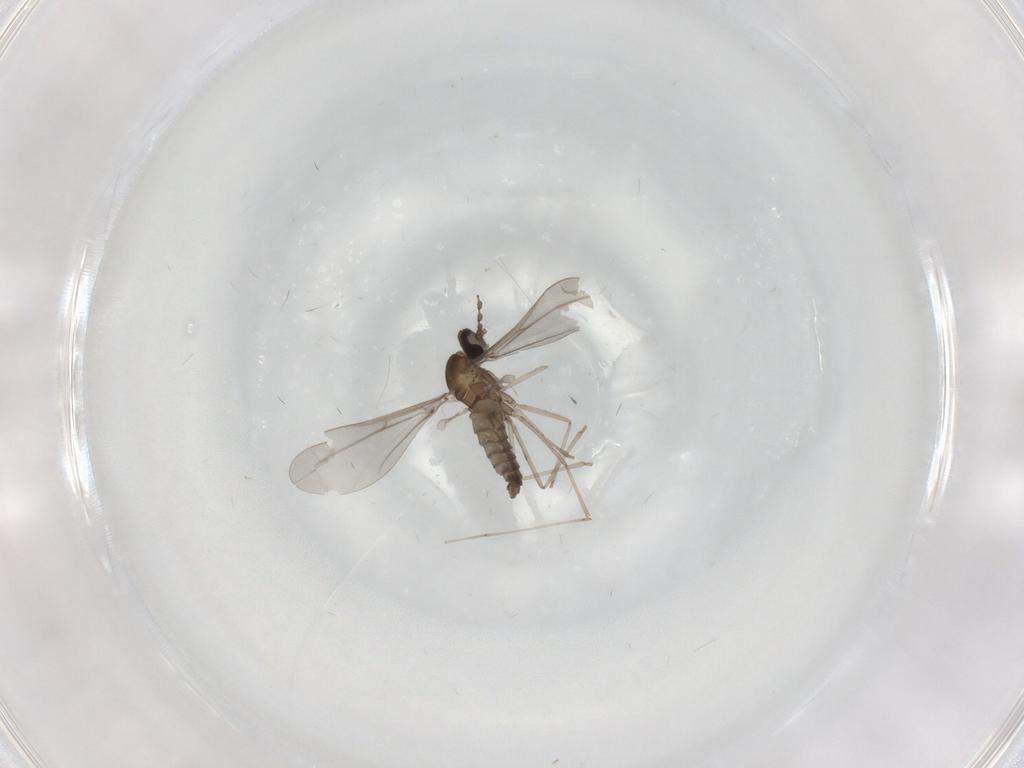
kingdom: Animalia
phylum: Arthropoda
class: Insecta
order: Diptera
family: Cecidomyiidae
